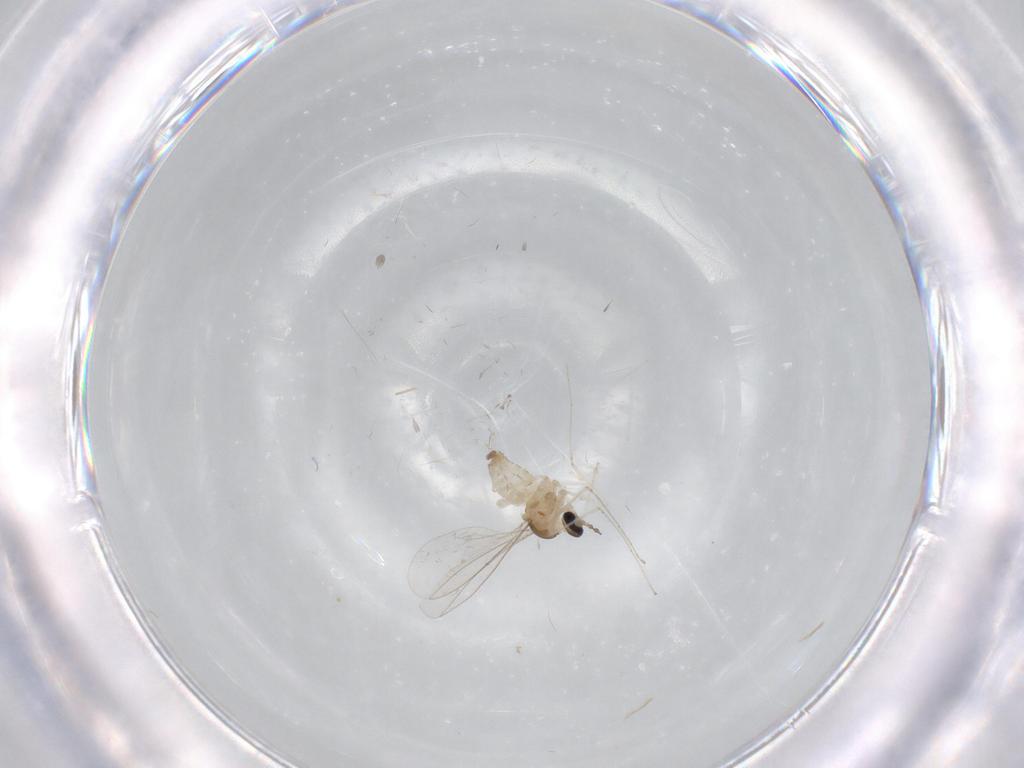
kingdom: Animalia
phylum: Arthropoda
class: Insecta
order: Diptera
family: Cecidomyiidae
